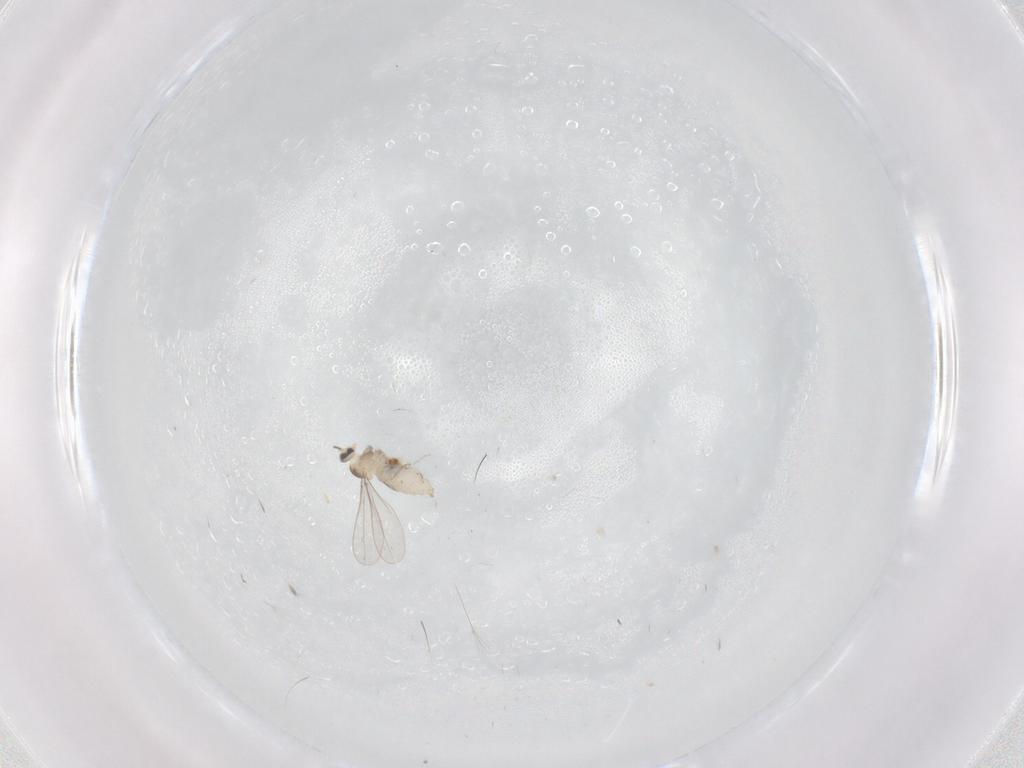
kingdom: Animalia
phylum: Arthropoda
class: Insecta
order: Diptera
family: Cecidomyiidae
